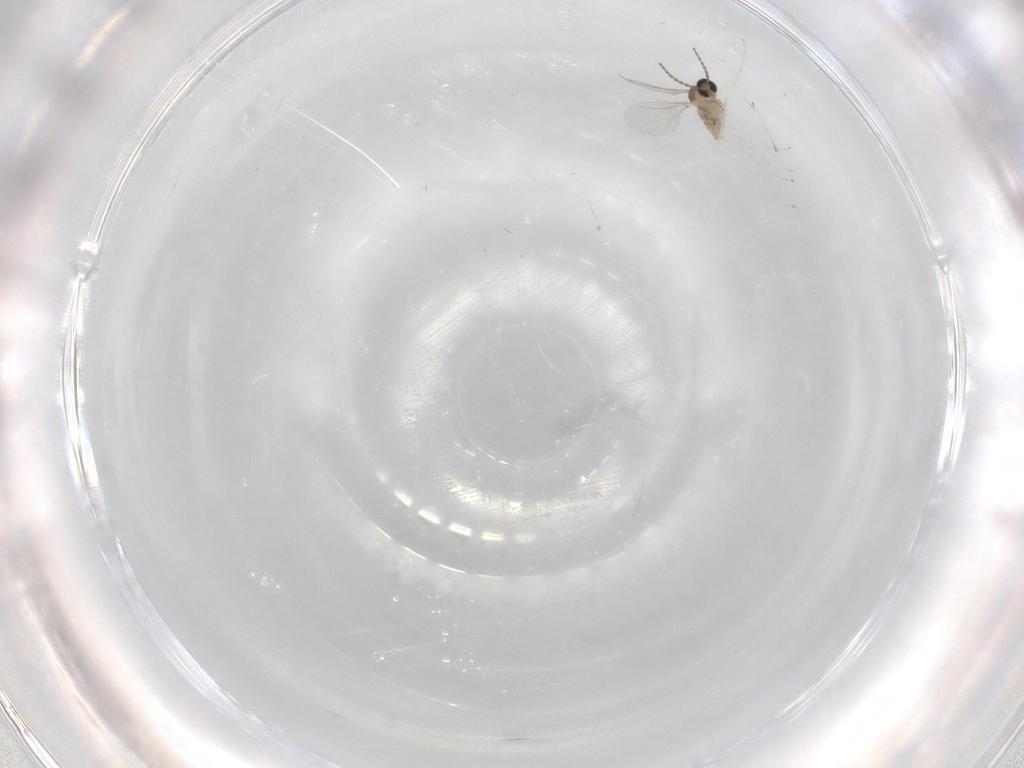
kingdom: Animalia
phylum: Arthropoda
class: Insecta
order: Diptera
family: Cecidomyiidae
